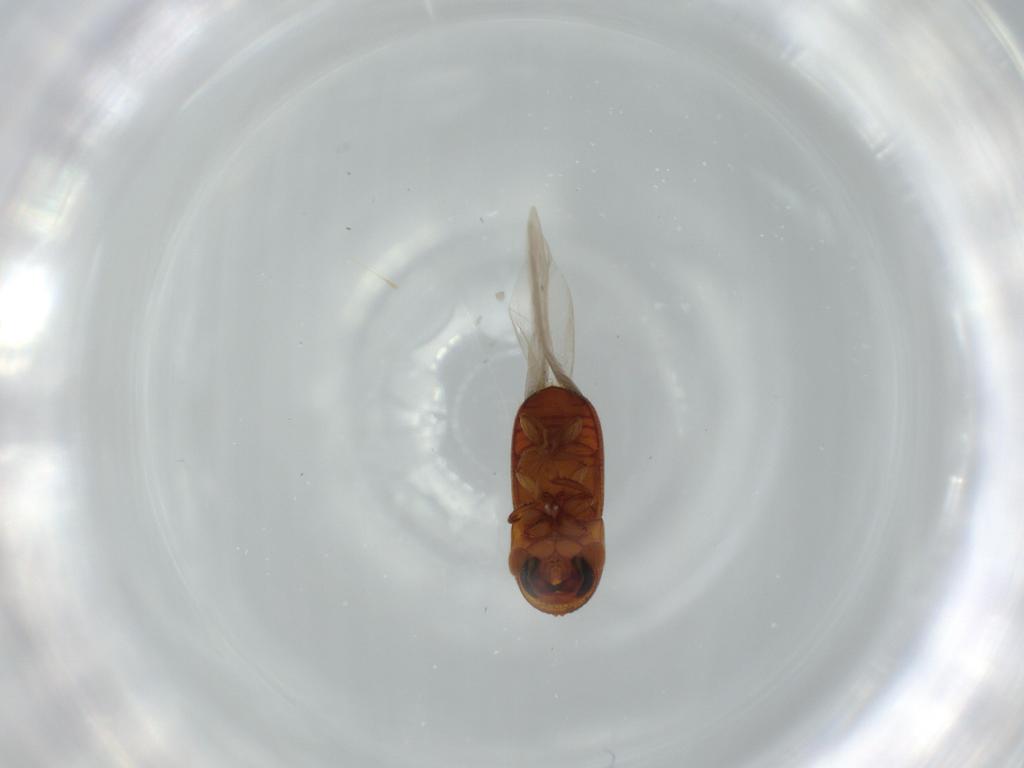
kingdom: Animalia
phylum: Arthropoda
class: Insecta
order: Coleoptera
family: Curculionidae
